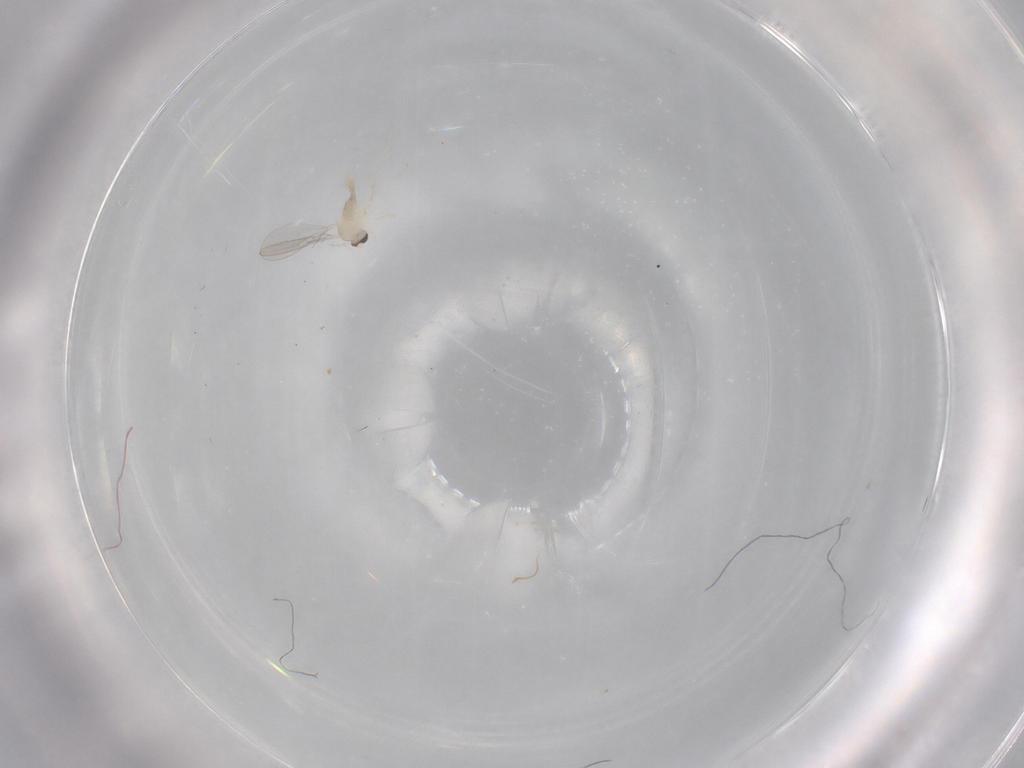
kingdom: Animalia
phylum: Arthropoda
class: Insecta
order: Diptera
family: Cecidomyiidae
